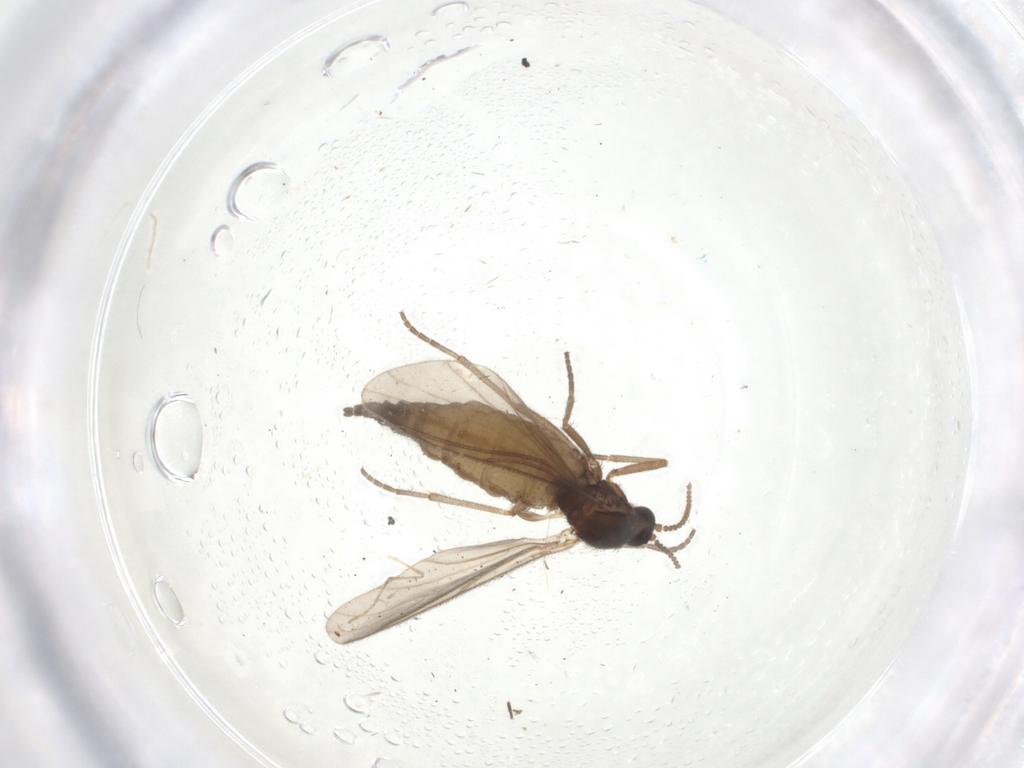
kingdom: Animalia
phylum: Arthropoda
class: Insecta
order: Diptera
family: Sciaridae
